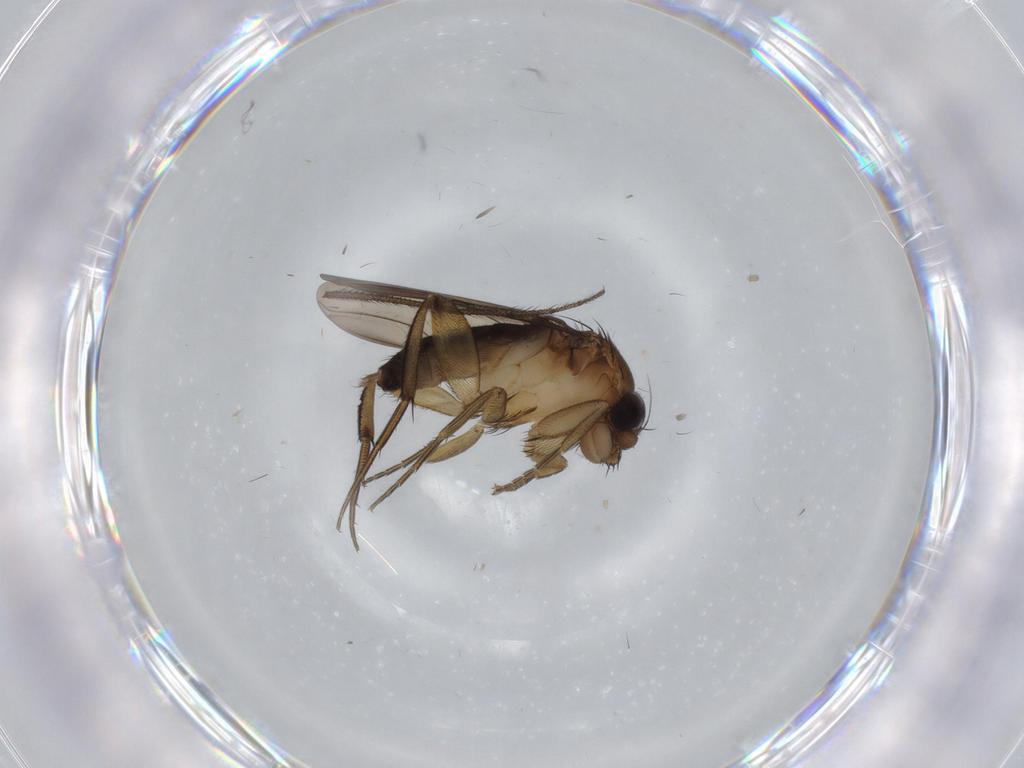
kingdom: Animalia
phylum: Arthropoda
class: Insecta
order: Diptera
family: Phoridae
